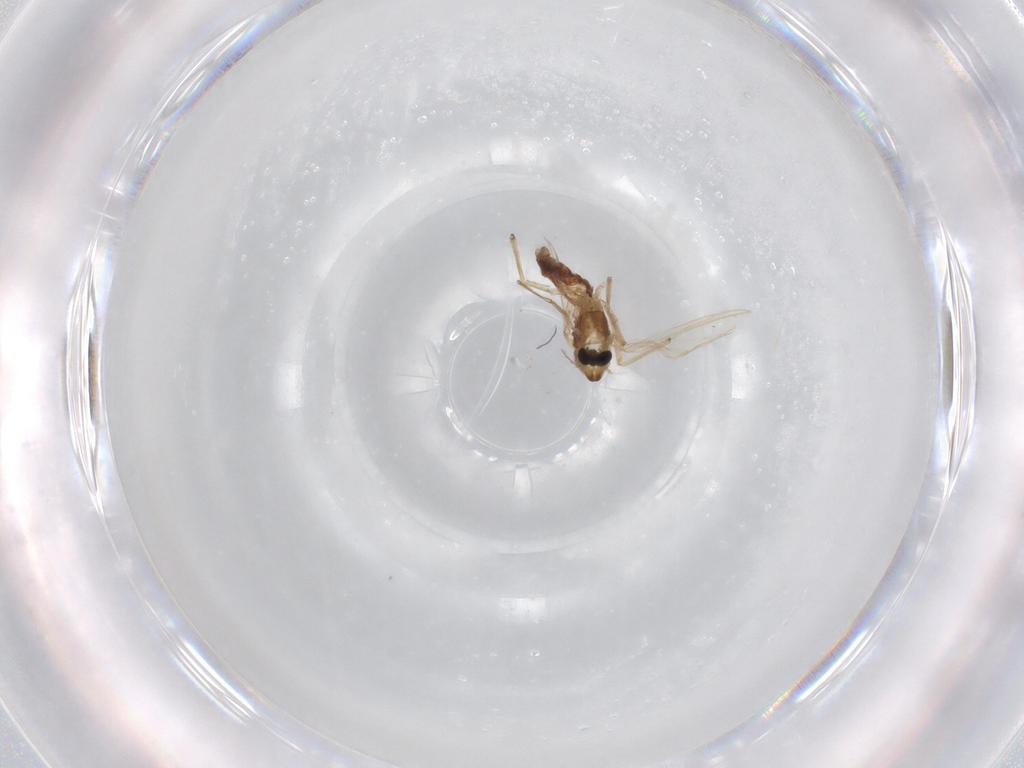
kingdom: Animalia
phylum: Arthropoda
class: Insecta
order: Diptera
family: Chironomidae
